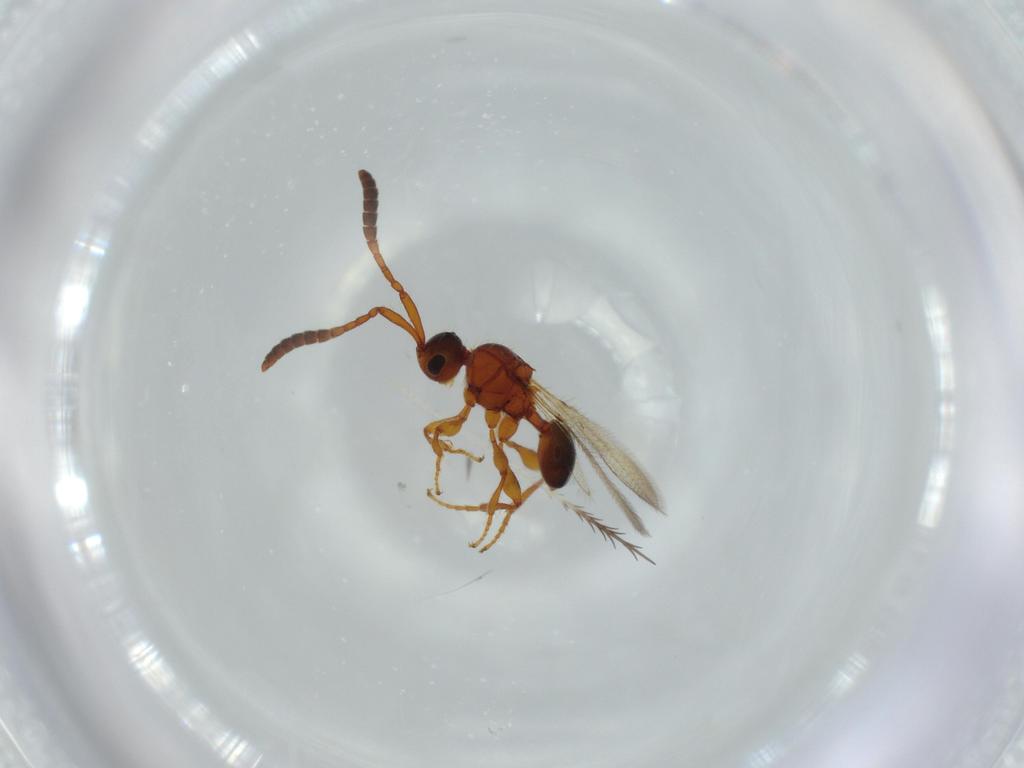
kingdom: Animalia
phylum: Arthropoda
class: Insecta
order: Hymenoptera
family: Diapriidae
